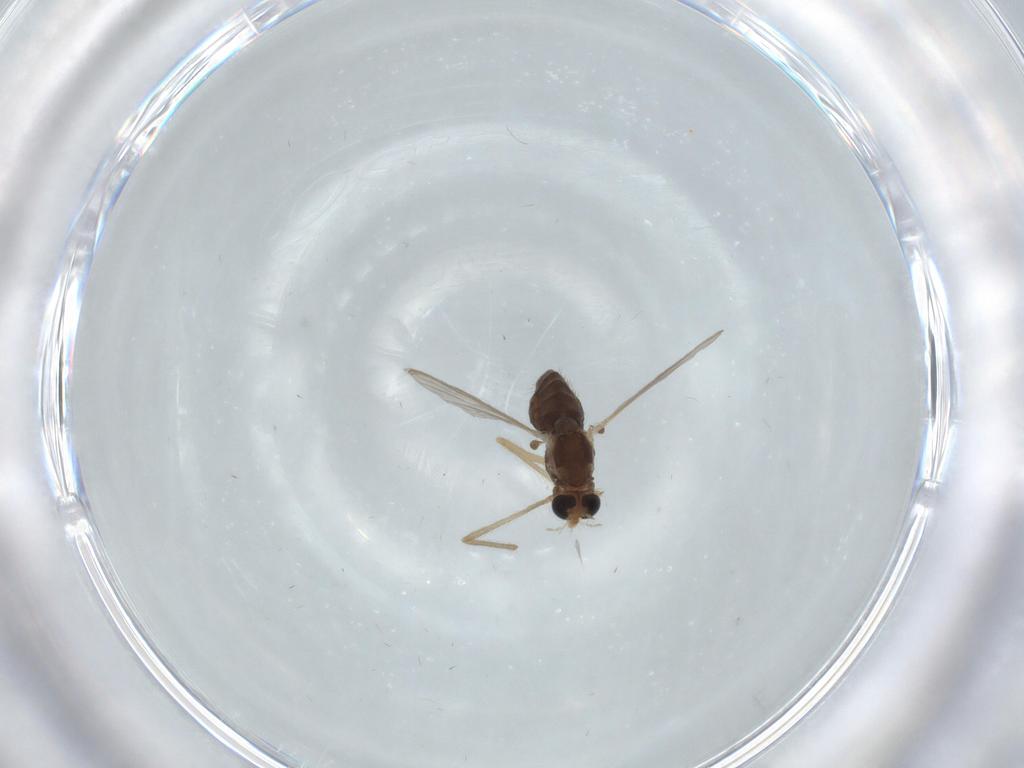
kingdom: Animalia
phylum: Arthropoda
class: Insecta
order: Diptera
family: Chironomidae
